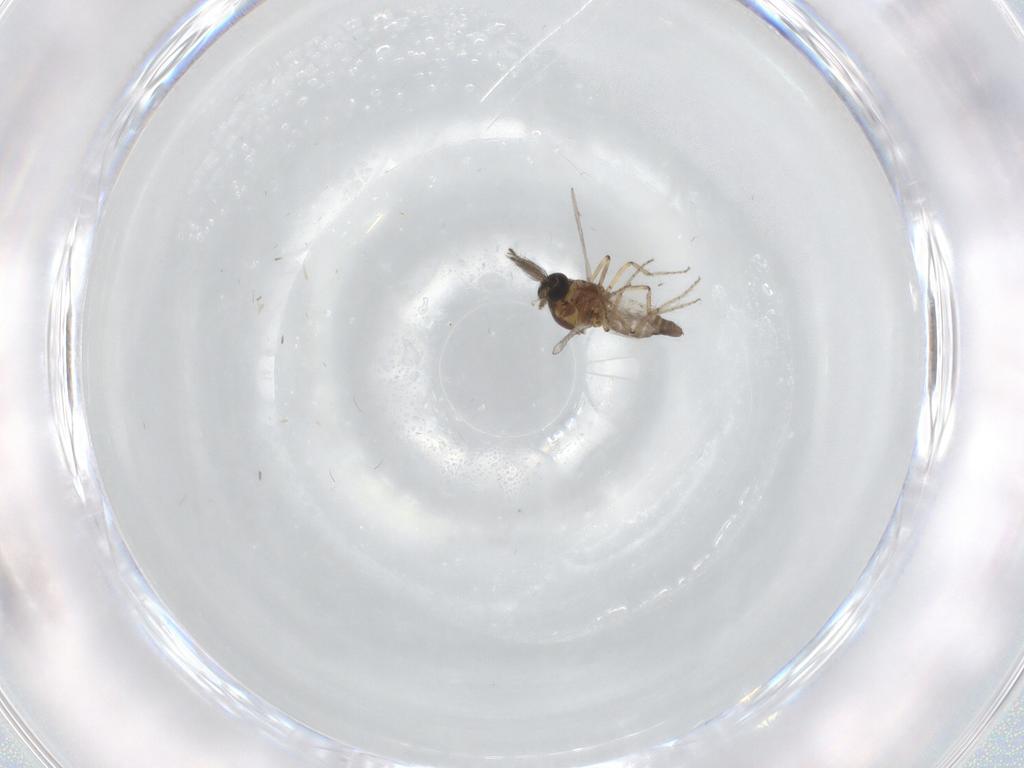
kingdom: Animalia
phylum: Arthropoda
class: Insecta
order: Diptera
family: Ceratopogonidae
